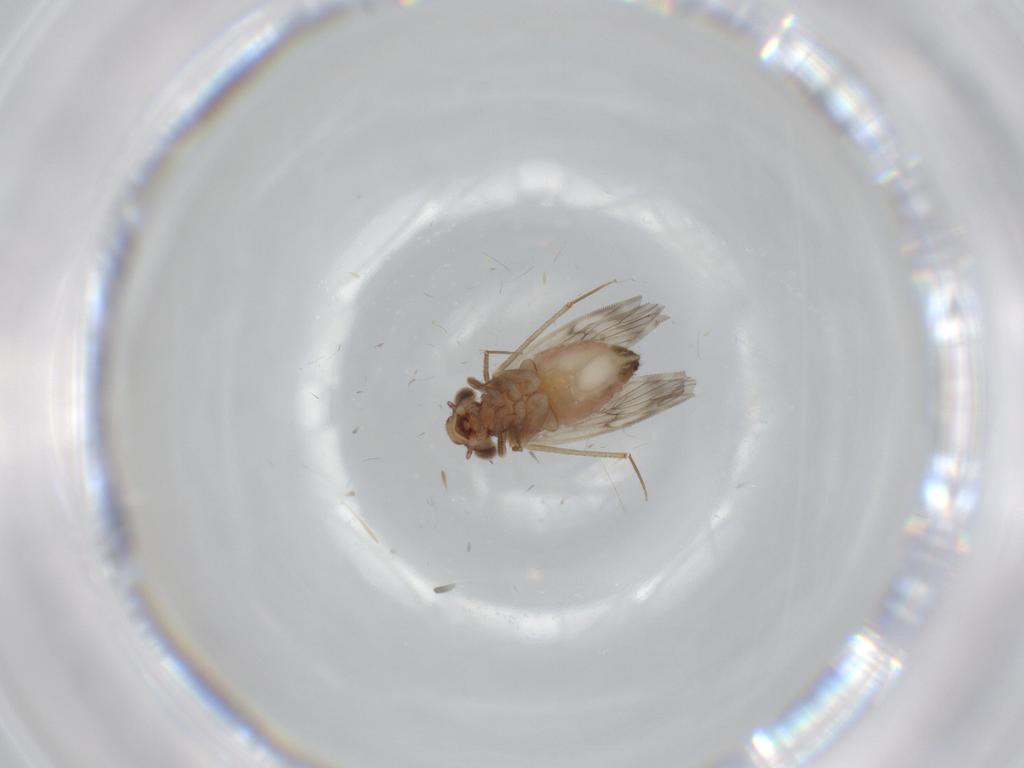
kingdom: Animalia
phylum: Arthropoda
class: Insecta
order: Psocodea
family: Lepidopsocidae
